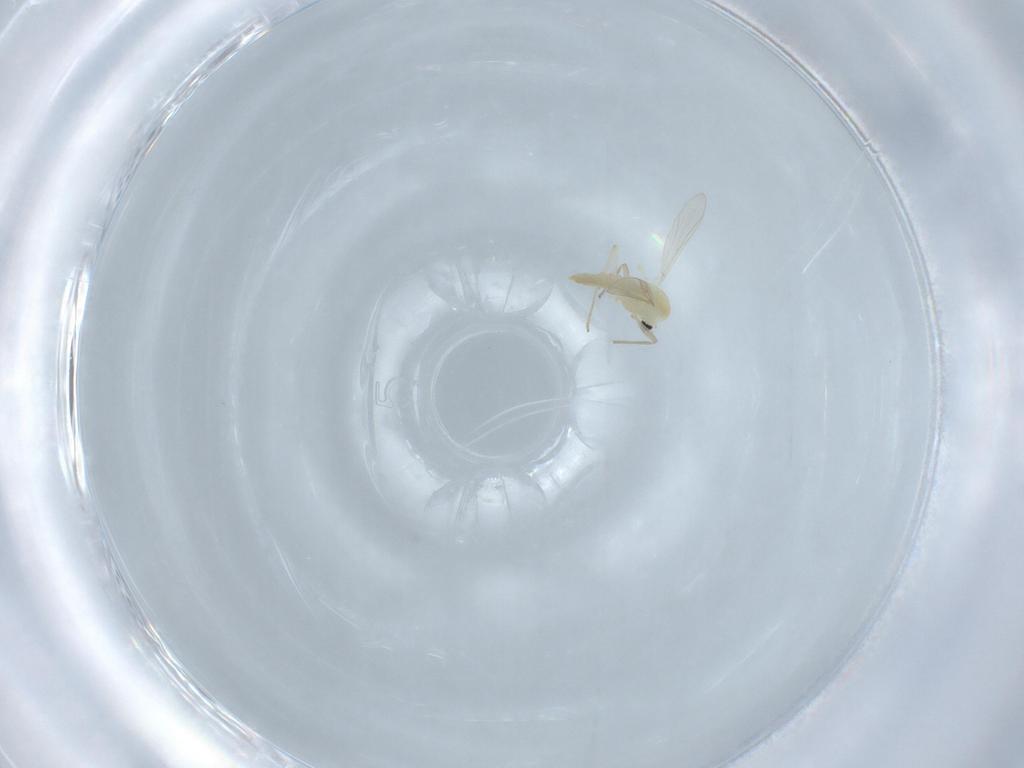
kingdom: Animalia
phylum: Arthropoda
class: Insecta
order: Diptera
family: Chironomidae
